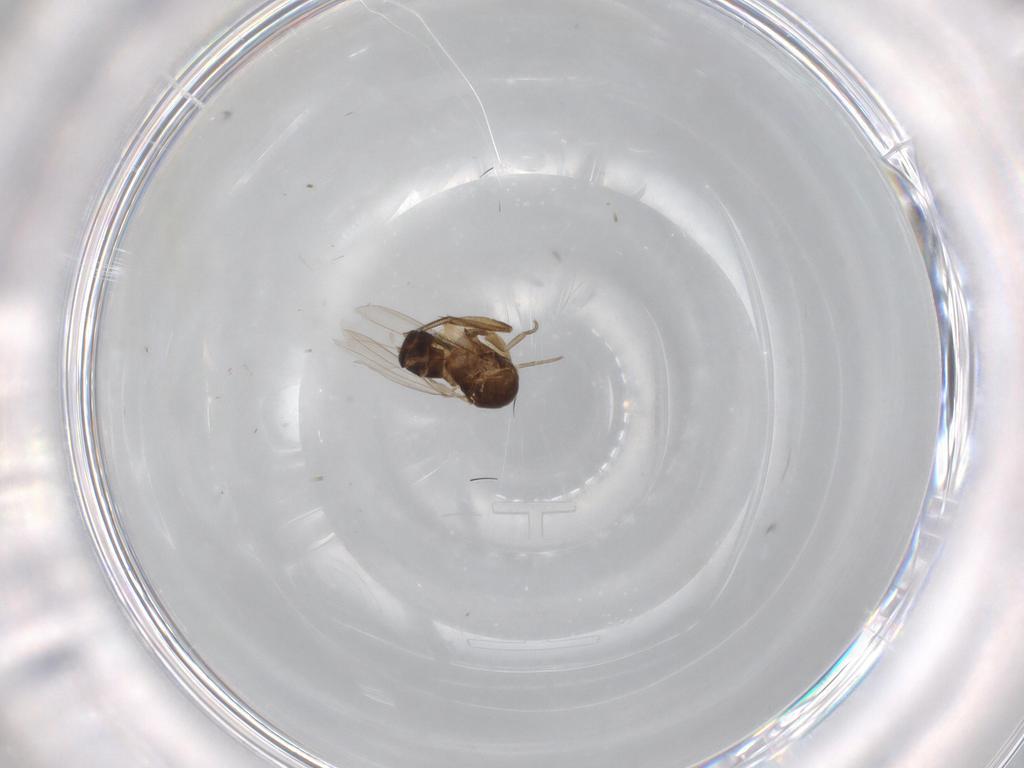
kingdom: Animalia
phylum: Arthropoda
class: Insecta
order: Diptera
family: Dolichopodidae
